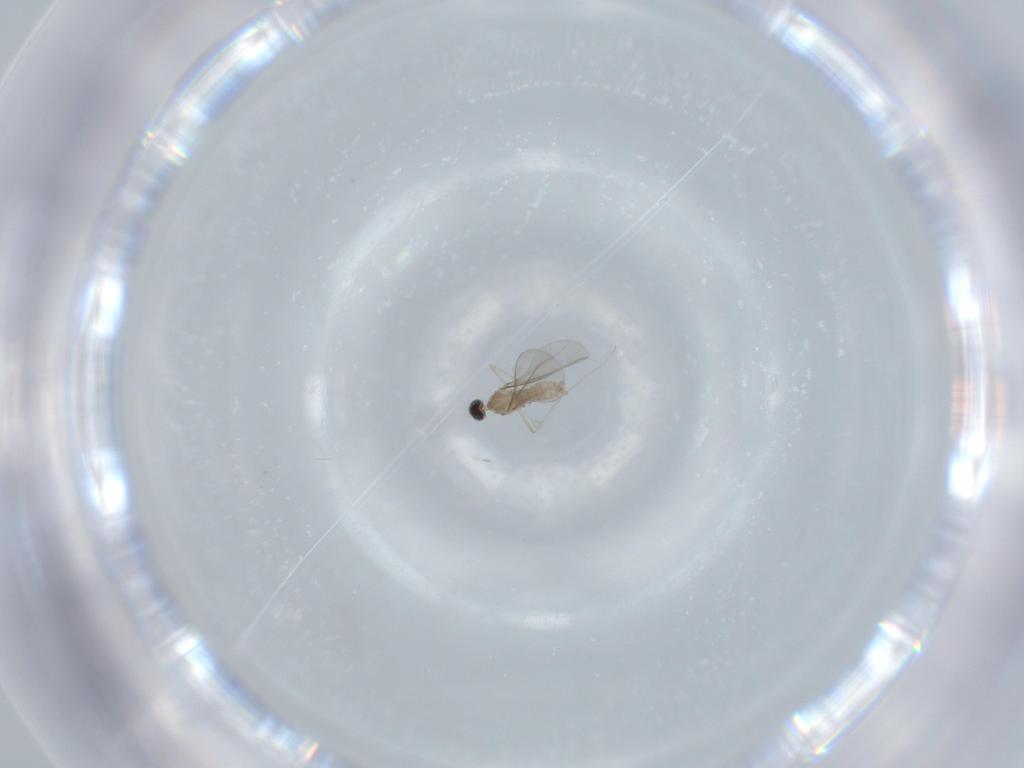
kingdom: Animalia
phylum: Arthropoda
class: Insecta
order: Diptera
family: Cecidomyiidae
